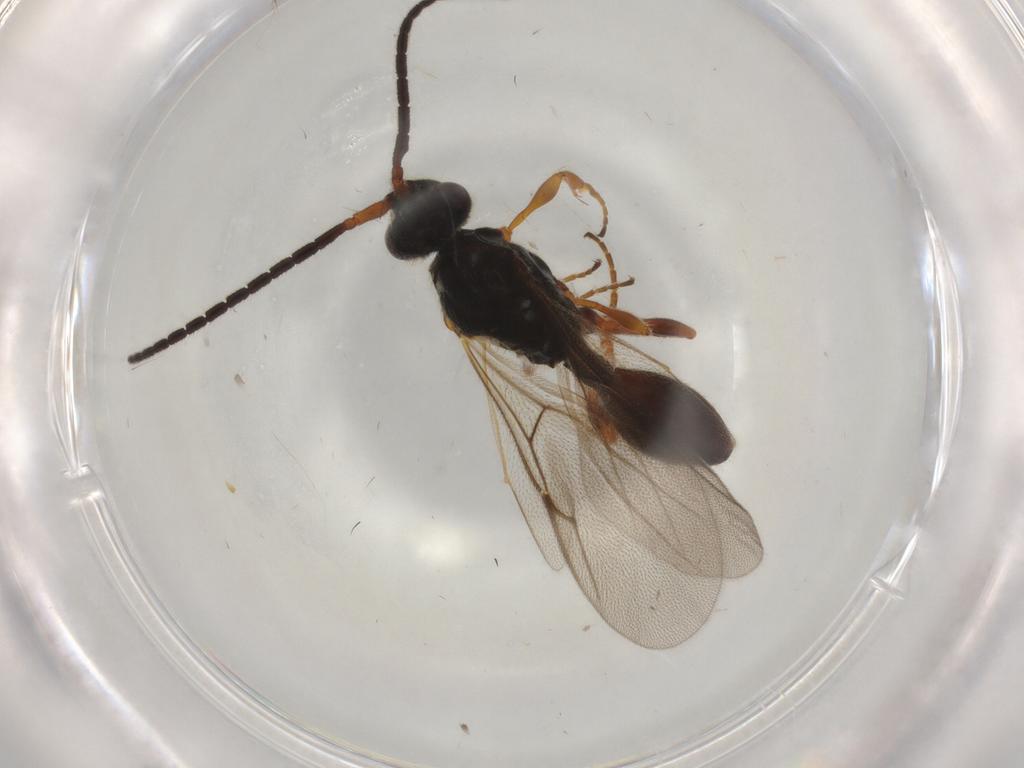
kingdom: Animalia
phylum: Arthropoda
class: Insecta
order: Hymenoptera
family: Diapriidae
